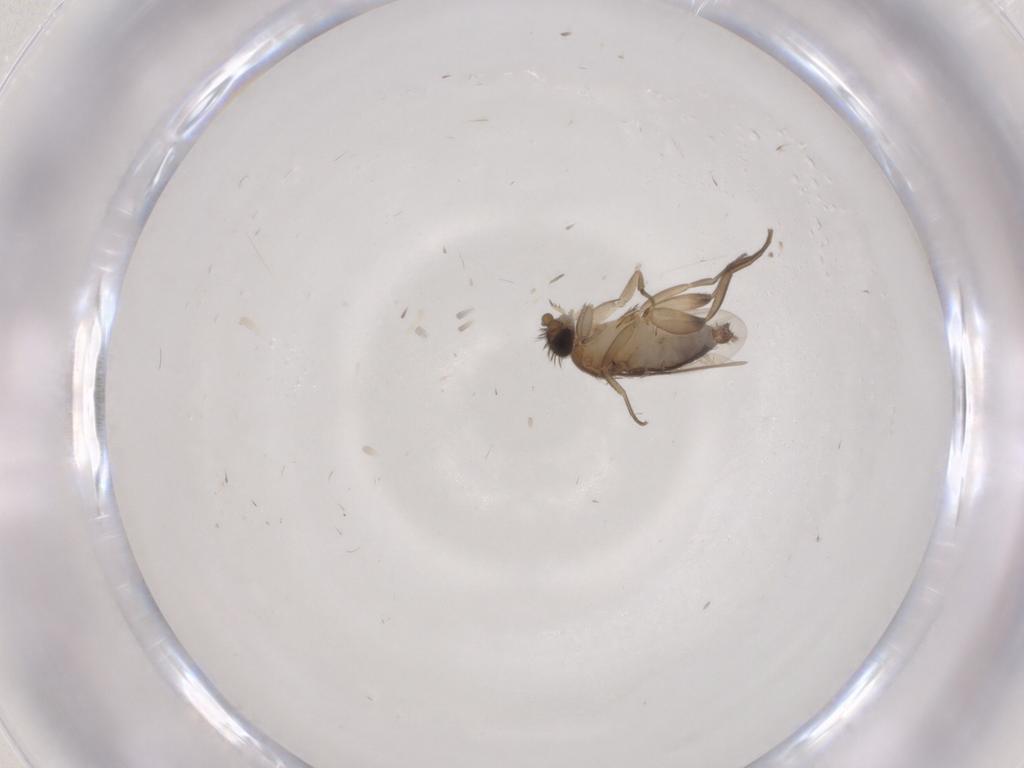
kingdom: Animalia
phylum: Arthropoda
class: Insecta
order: Diptera
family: Phoridae
